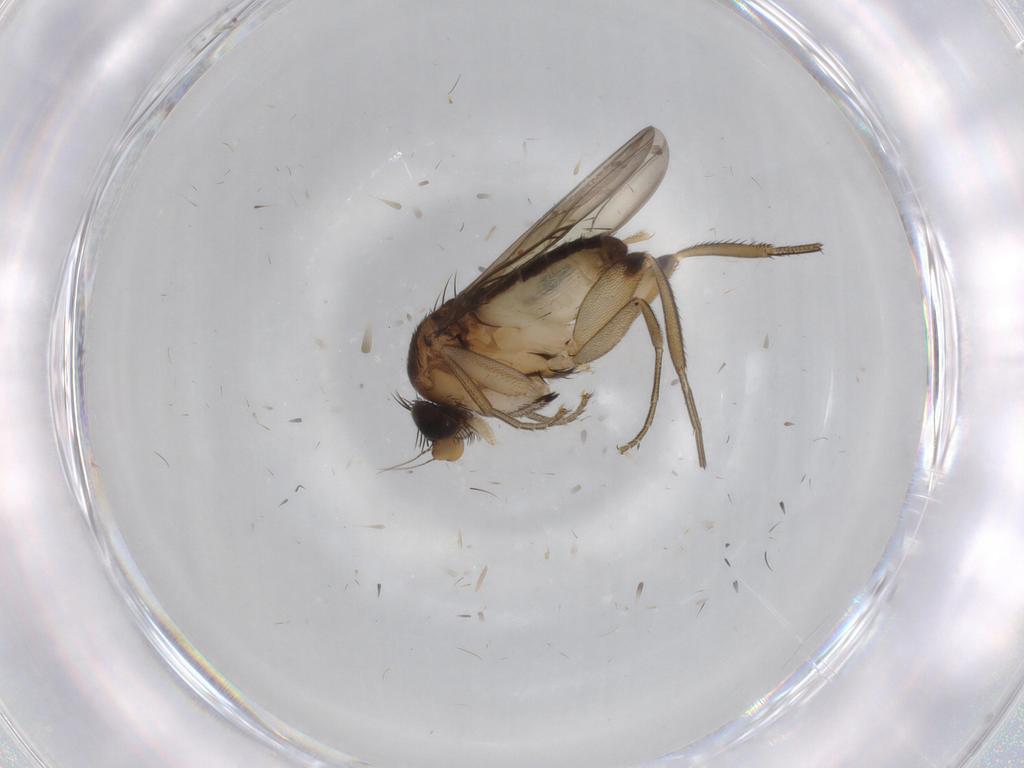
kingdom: Animalia
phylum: Arthropoda
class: Insecta
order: Diptera
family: Phoridae
